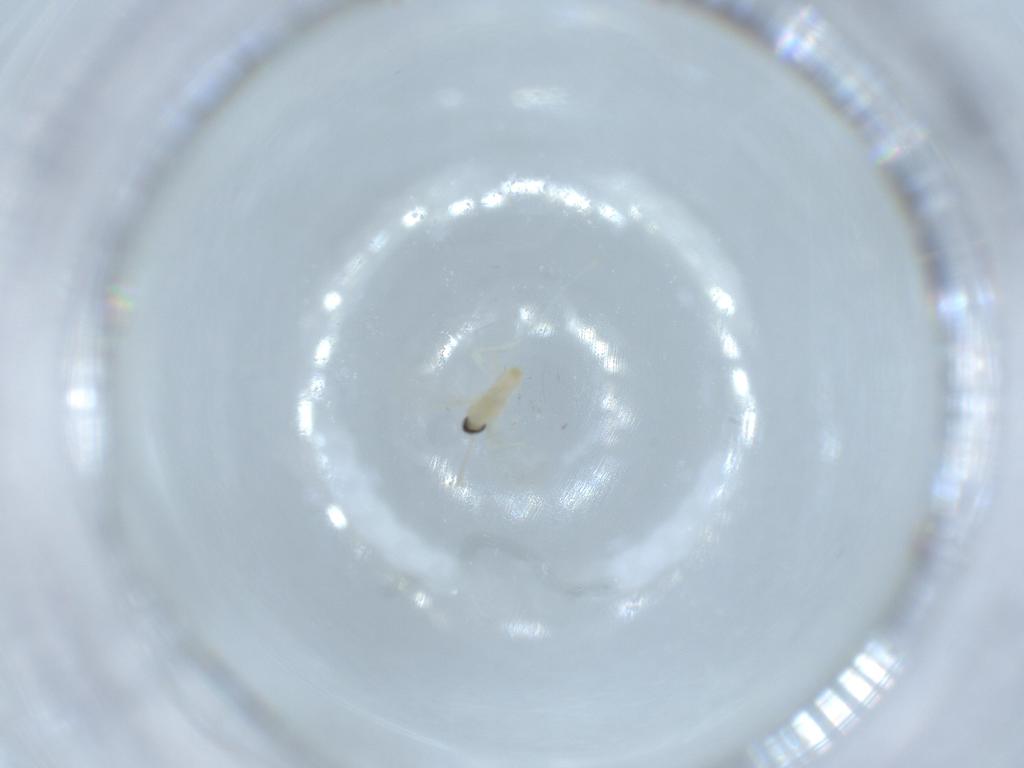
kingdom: Animalia
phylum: Arthropoda
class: Insecta
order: Diptera
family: Cecidomyiidae
